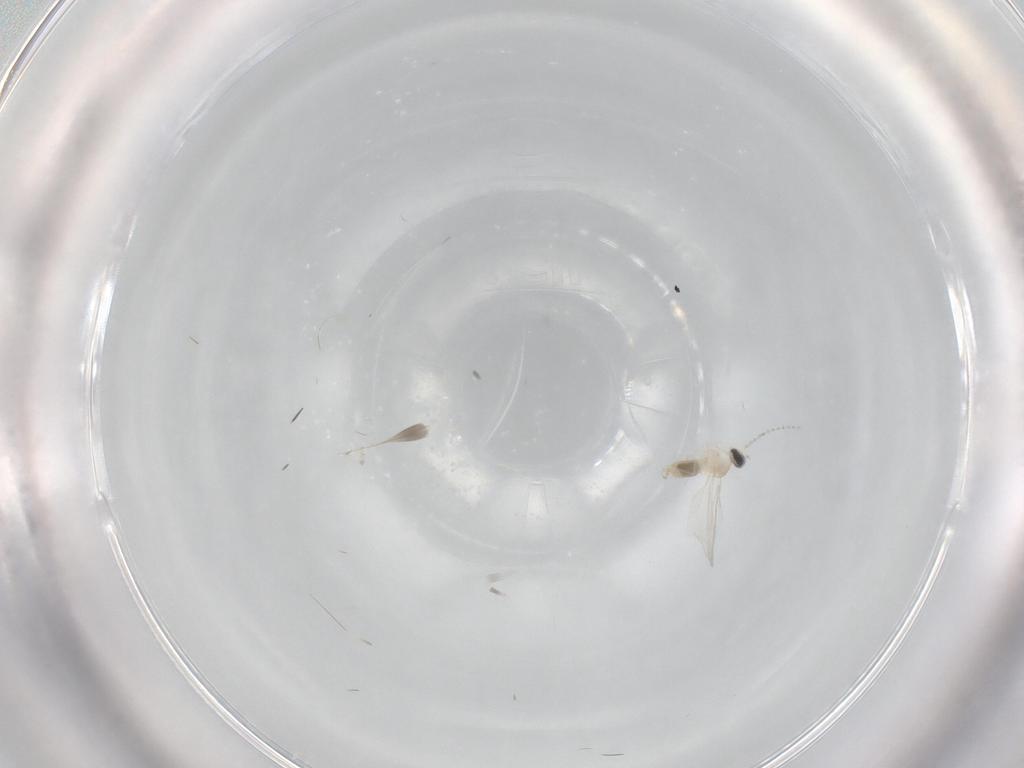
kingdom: Animalia
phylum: Arthropoda
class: Insecta
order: Diptera
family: Cecidomyiidae
